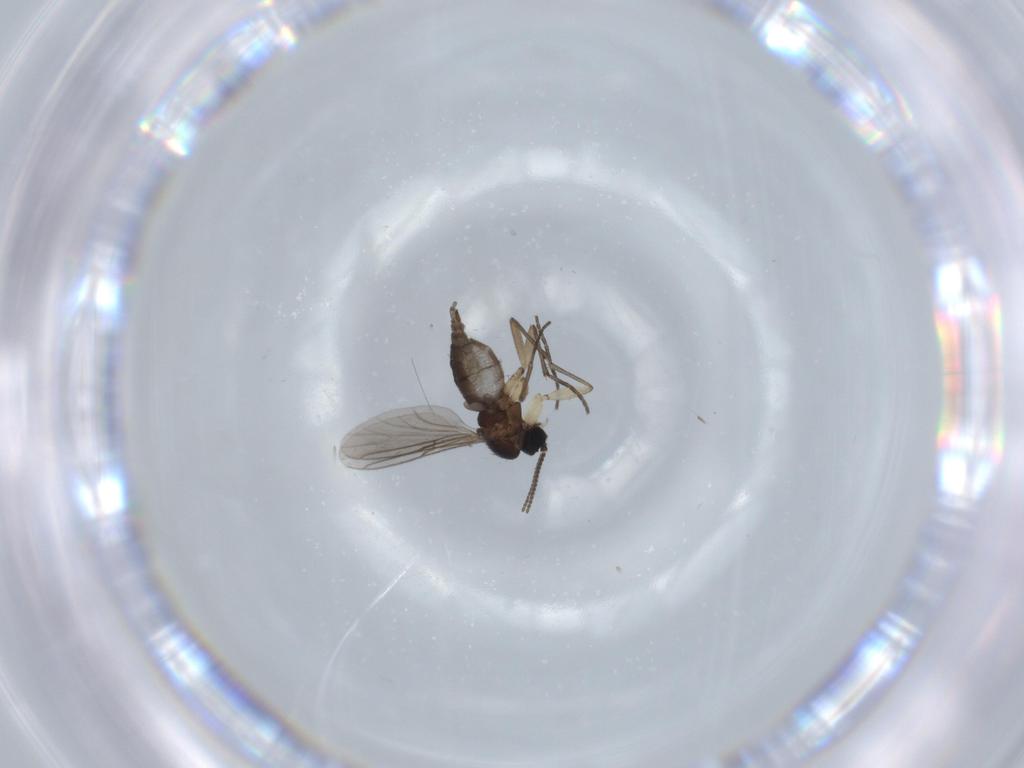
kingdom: Animalia
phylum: Arthropoda
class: Insecta
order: Diptera
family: Sciaridae
